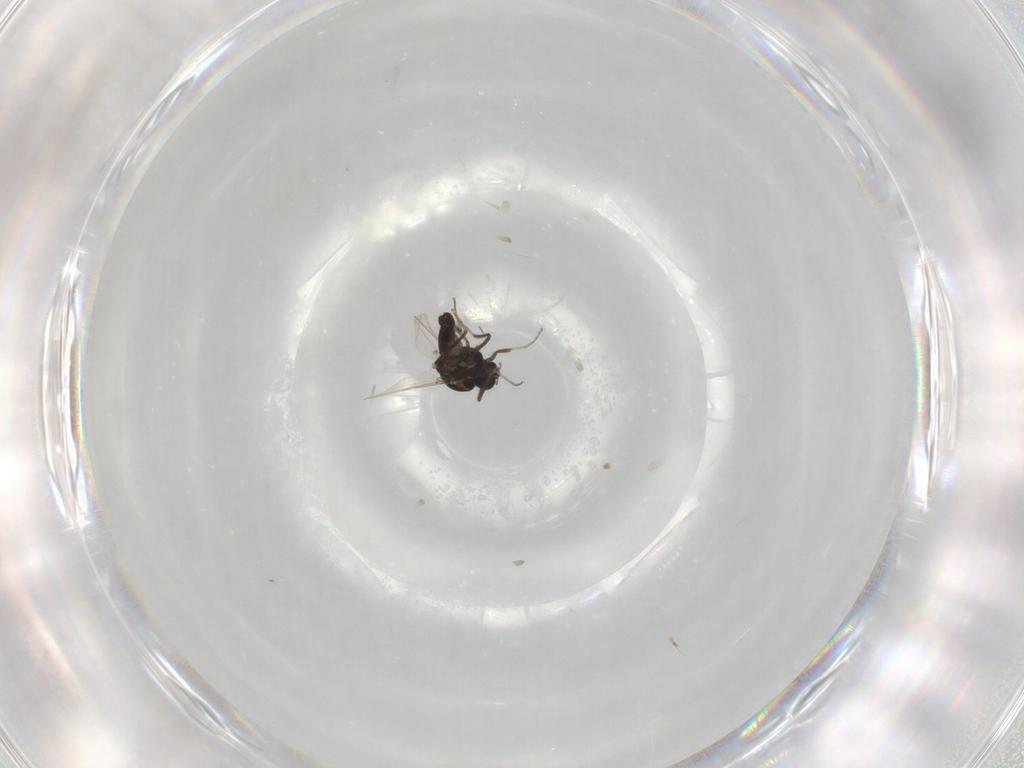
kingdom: Animalia
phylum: Arthropoda
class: Insecta
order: Diptera
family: Ceratopogonidae
